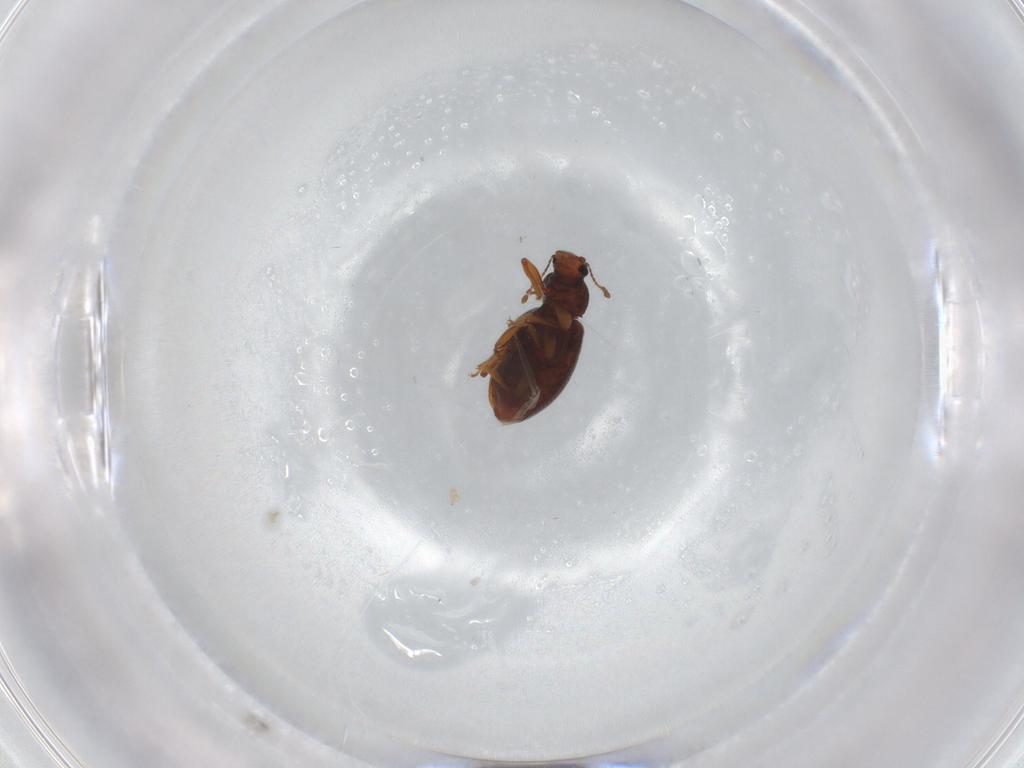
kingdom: Animalia
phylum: Arthropoda
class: Insecta
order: Coleoptera
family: Latridiidae
